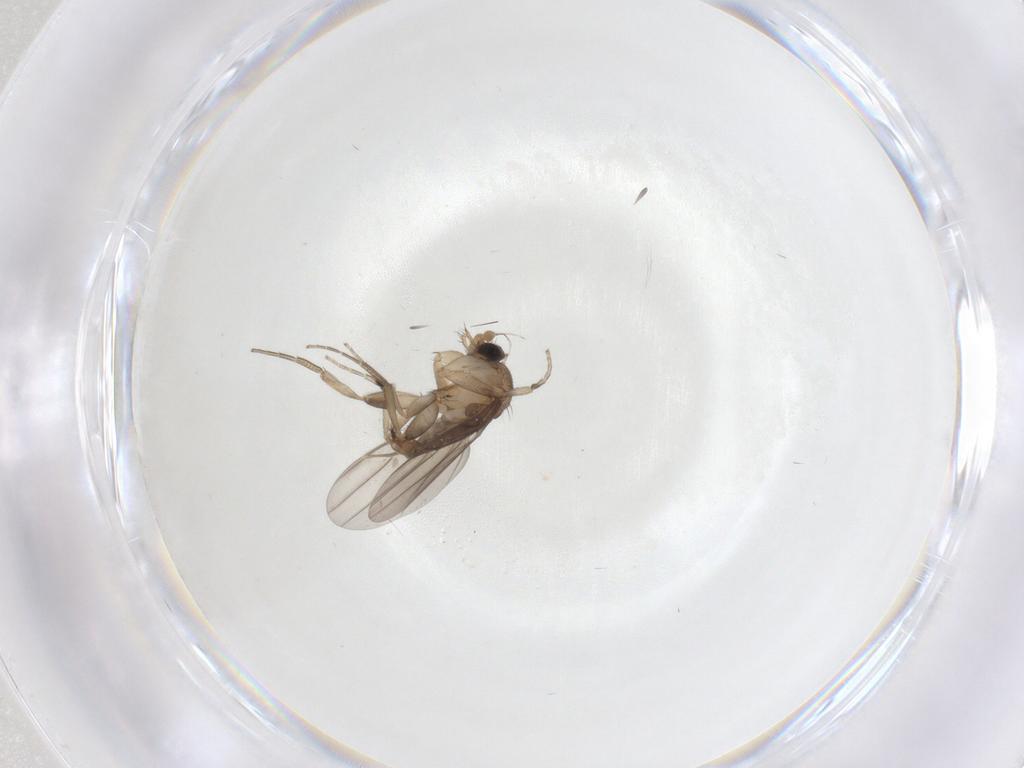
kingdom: Animalia
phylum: Arthropoda
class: Insecta
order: Diptera
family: Phoridae
